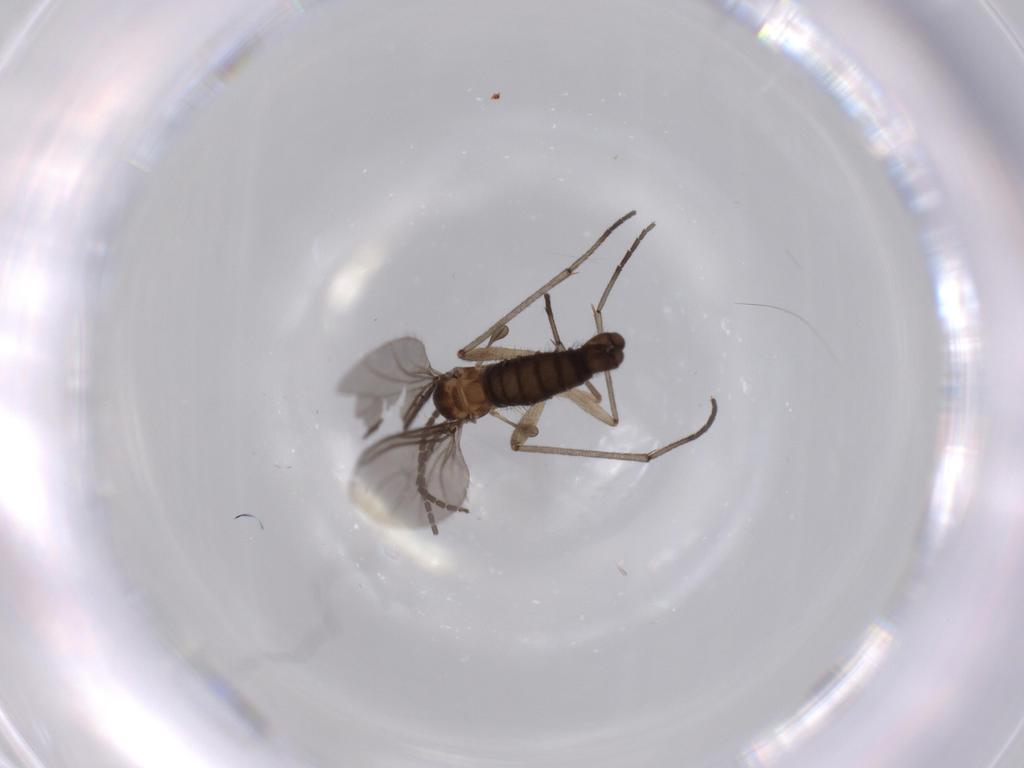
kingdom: Animalia
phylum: Arthropoda
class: Insecta
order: Diptera
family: Sciaridae
